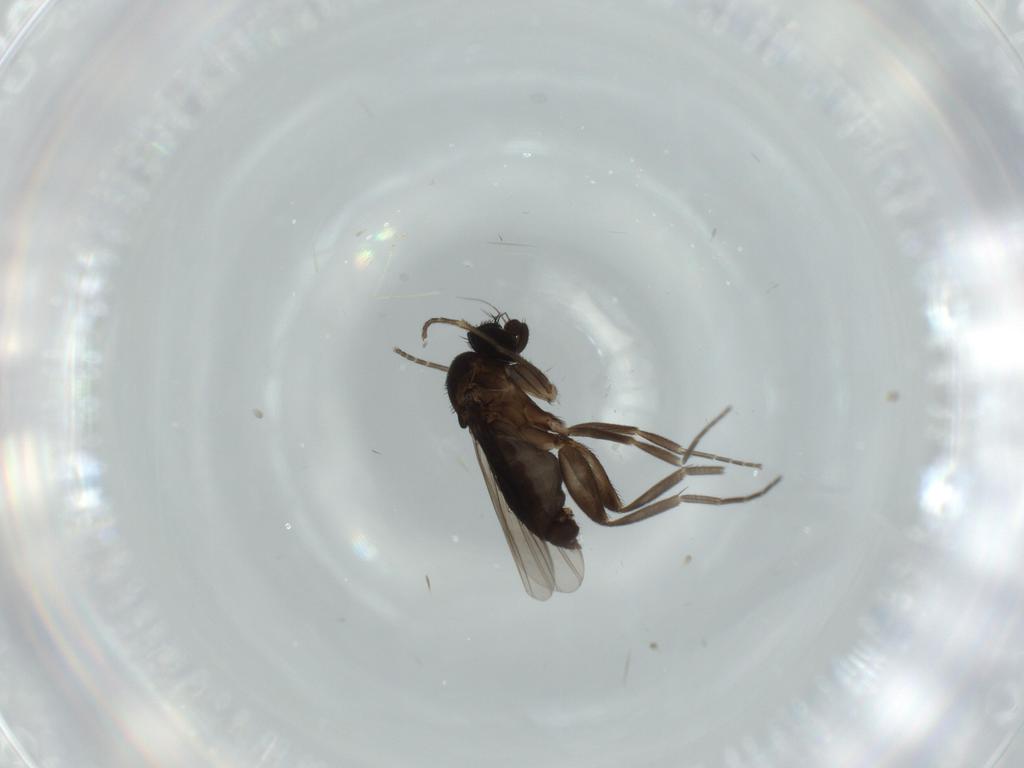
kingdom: Animalia
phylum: Arthropoda
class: Insecta
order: Diptera
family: Phoridae
